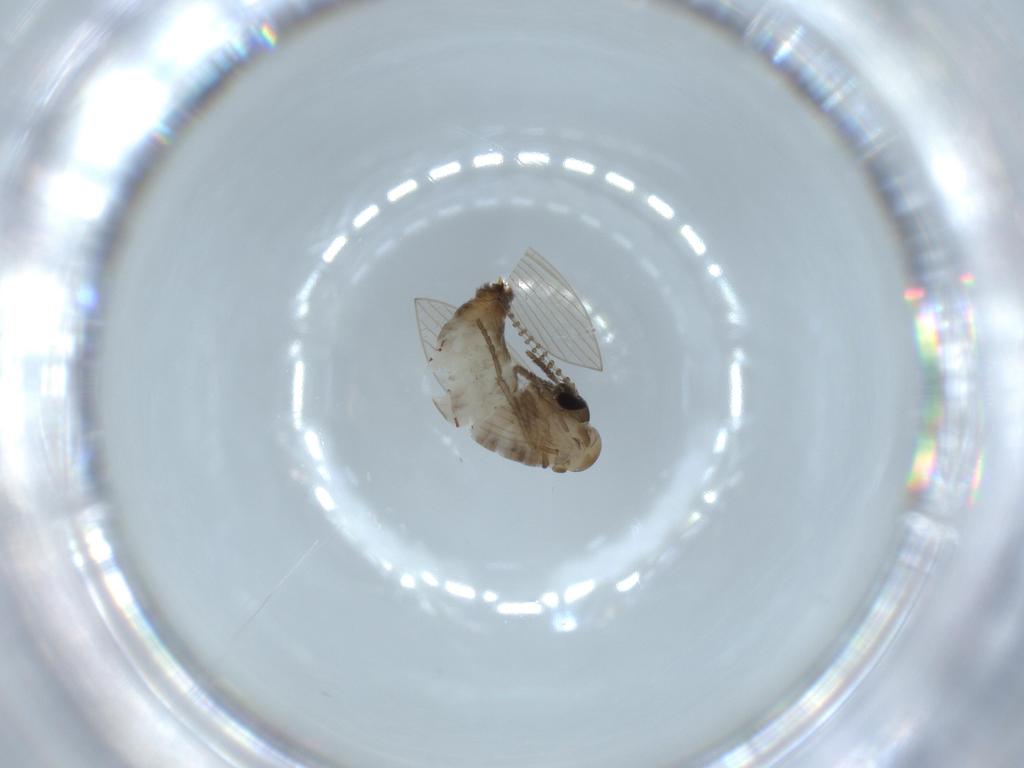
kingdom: Animalia
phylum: Arthropoda
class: Insecta
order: Diptera
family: Psychodidae
